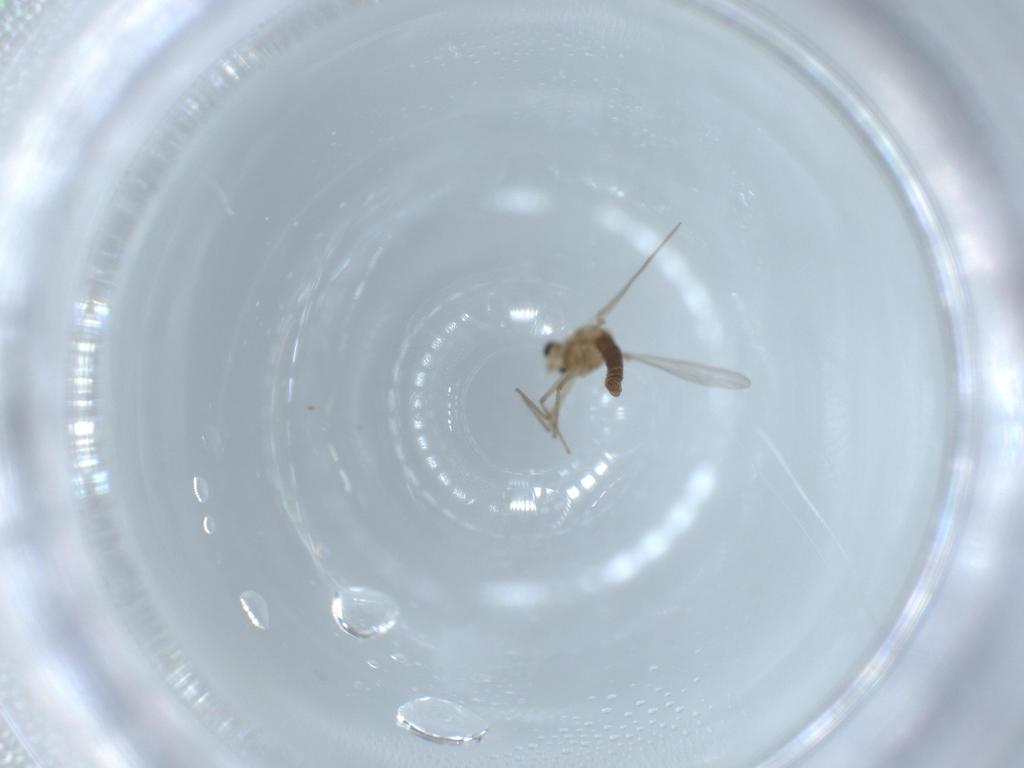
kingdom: Animalia
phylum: Arthropoda
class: Insecta
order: Diptera
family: Chironomidae
